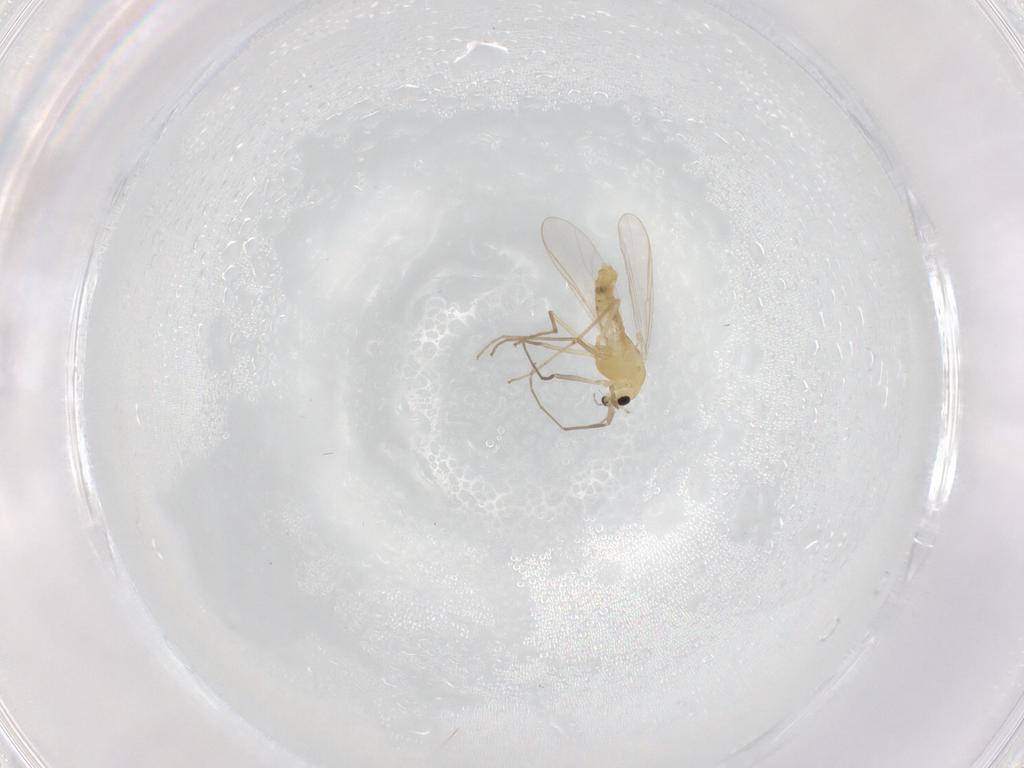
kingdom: Animalia
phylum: Arthropoda
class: Insecta
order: Diptera
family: Chironomidae
